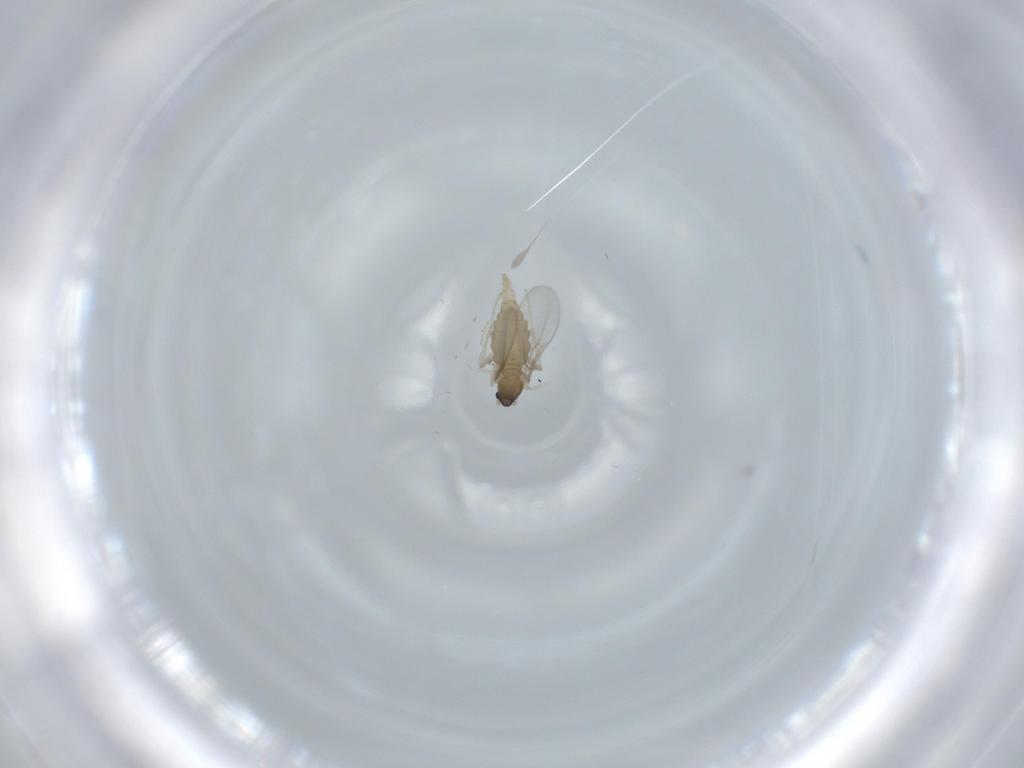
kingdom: Animalia
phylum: Arthropoda
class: Insecta
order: Diptera
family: Cecidomyiidae
